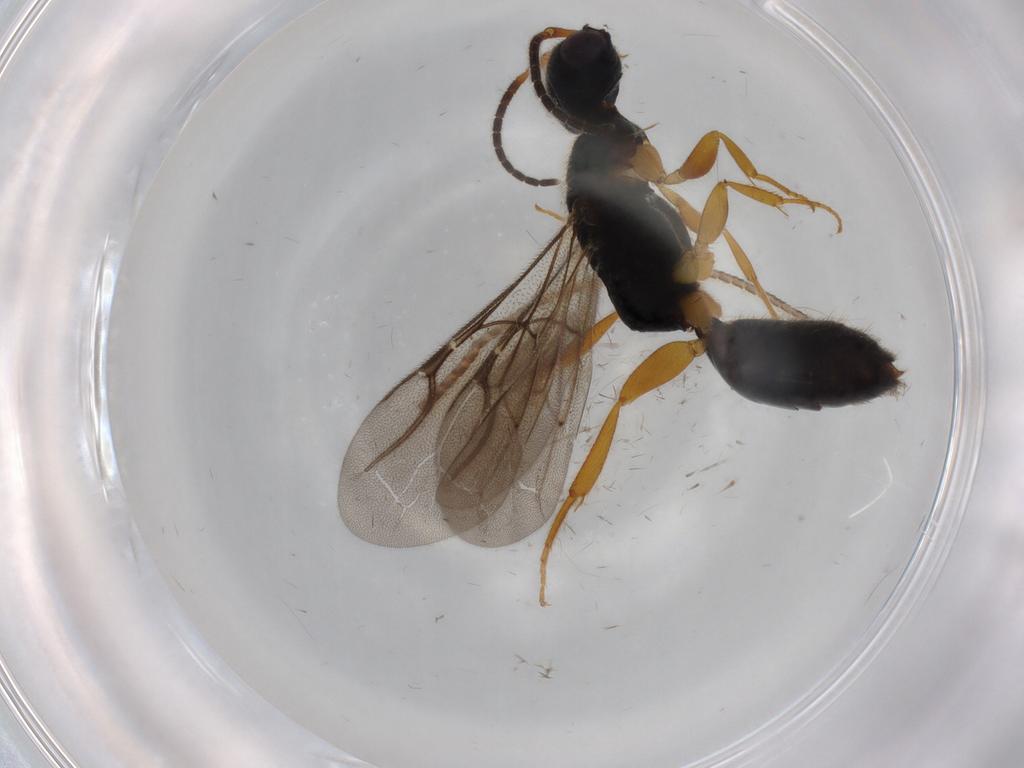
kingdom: Animalia
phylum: Arthropoda
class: Insecta
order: Hymenoptera
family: Bethylidae
